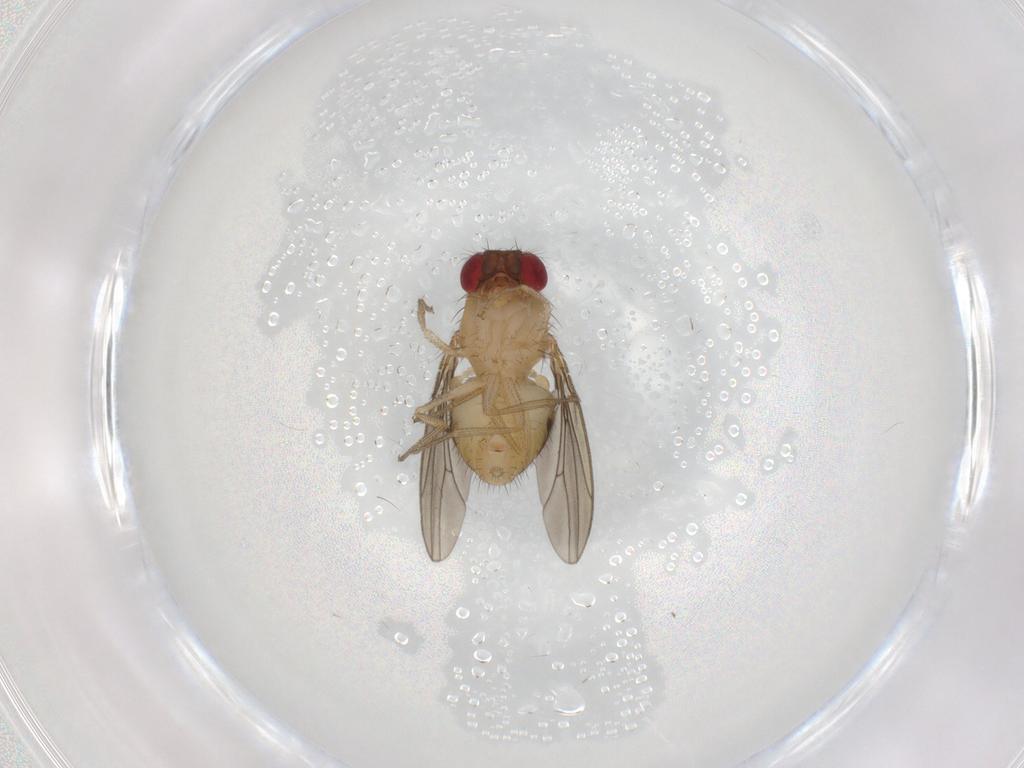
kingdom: Animalia
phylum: Arthropoda
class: Insecta
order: Diptera
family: Drosophilidae
